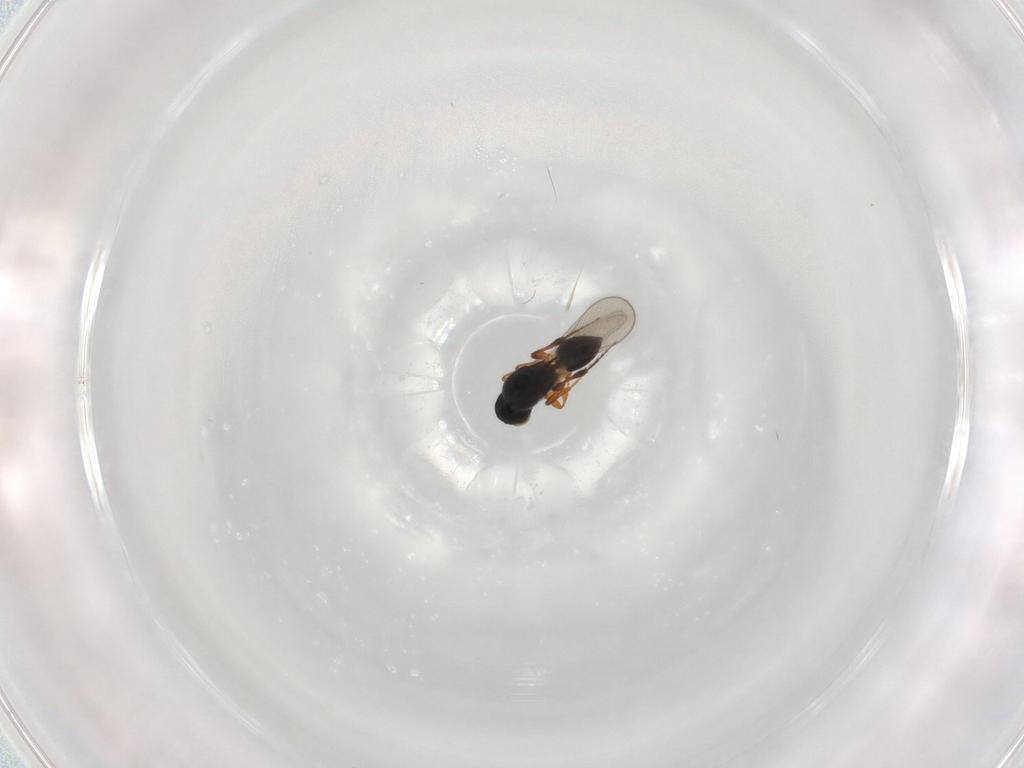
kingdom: Animalia
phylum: Arthropoda
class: Insecta
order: Hymenoptera
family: Platygastridae
